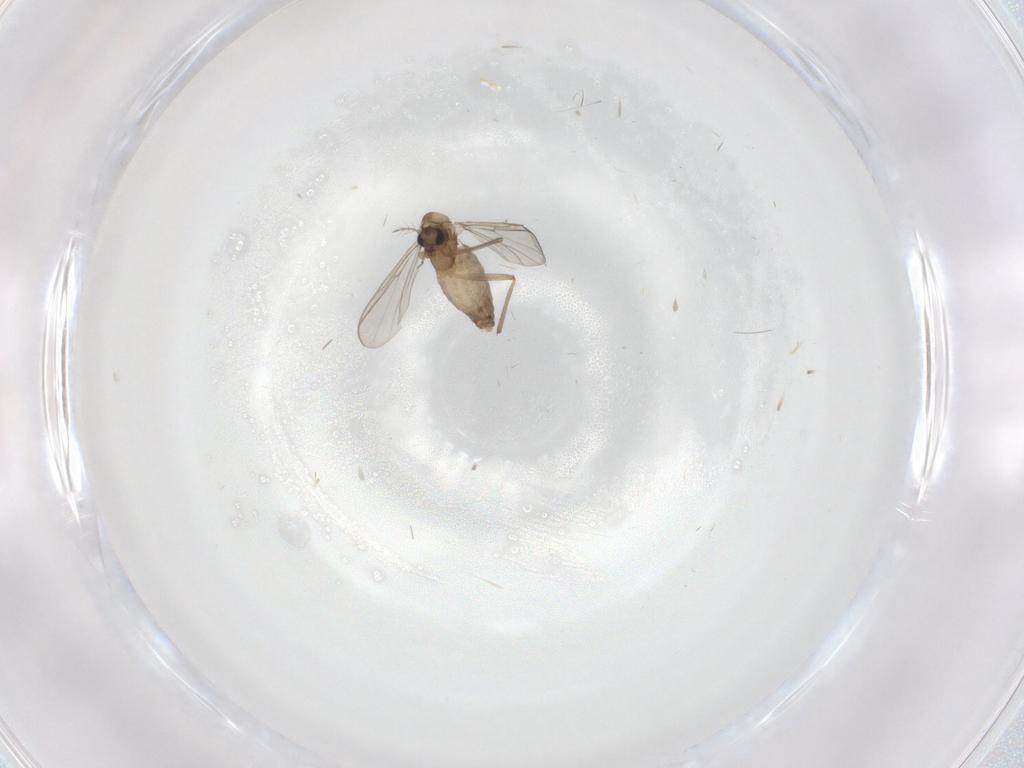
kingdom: Animalia
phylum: Arthropoda
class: Insecta
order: Diptera
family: Chironomidae
